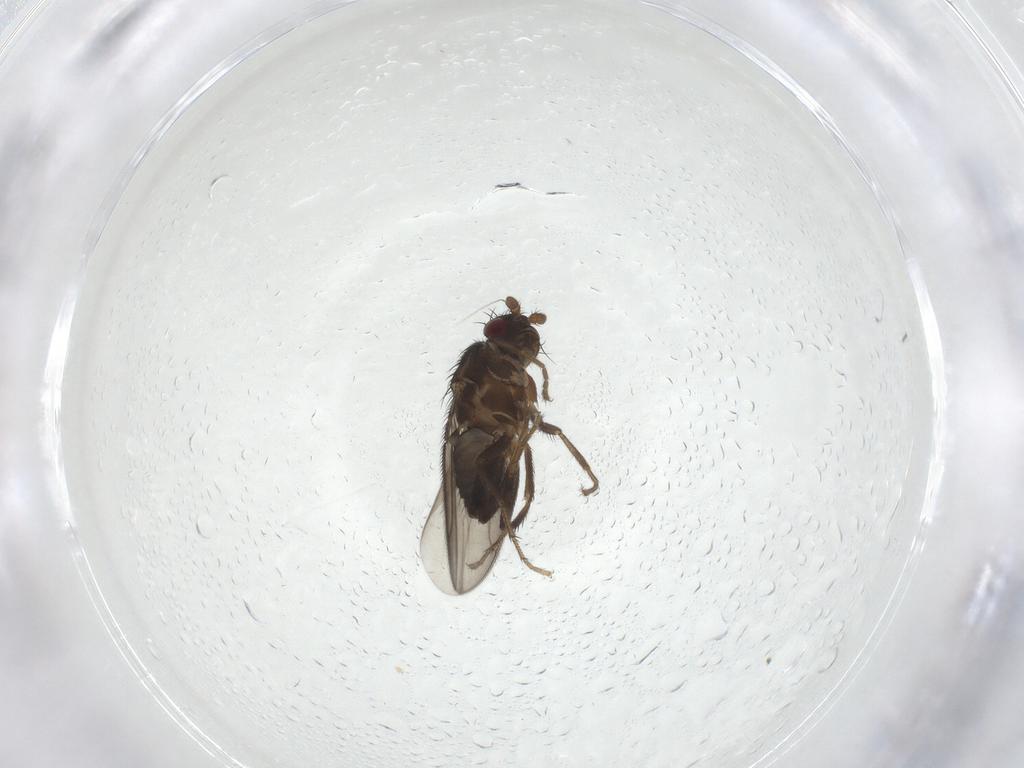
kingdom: Animalia
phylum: Arthropoda
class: Insecta
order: Diptera
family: Sphaeroceridae
